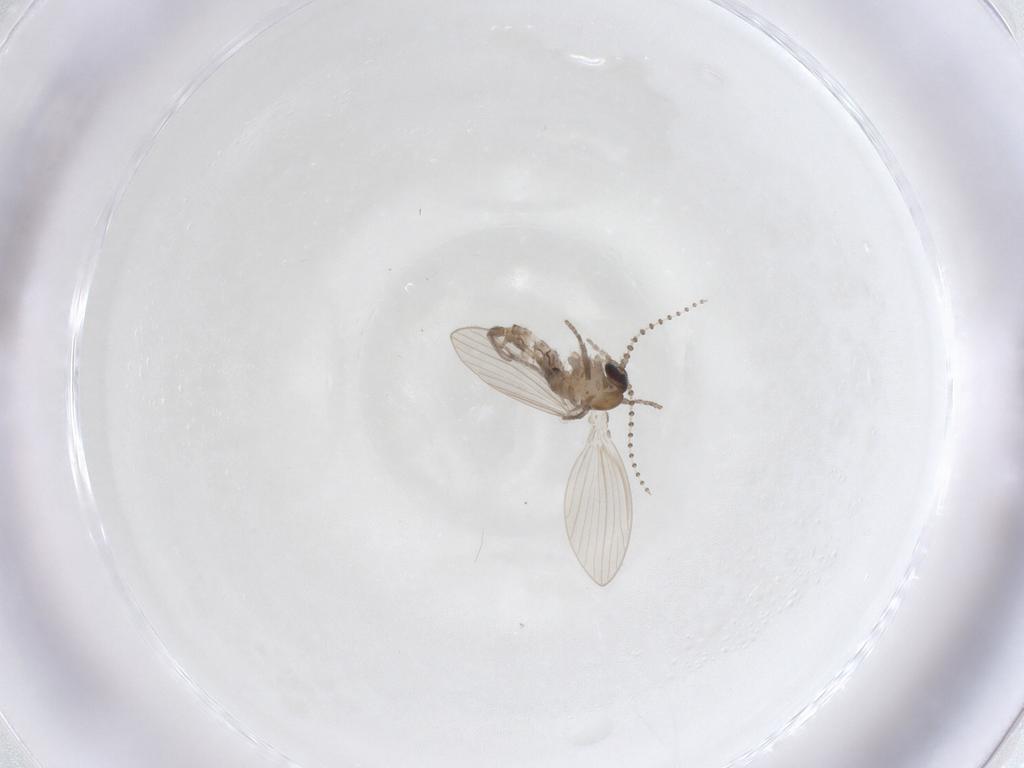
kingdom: Animalia
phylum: Arthropoda
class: Insecta
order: Diptera
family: Psychodidae
